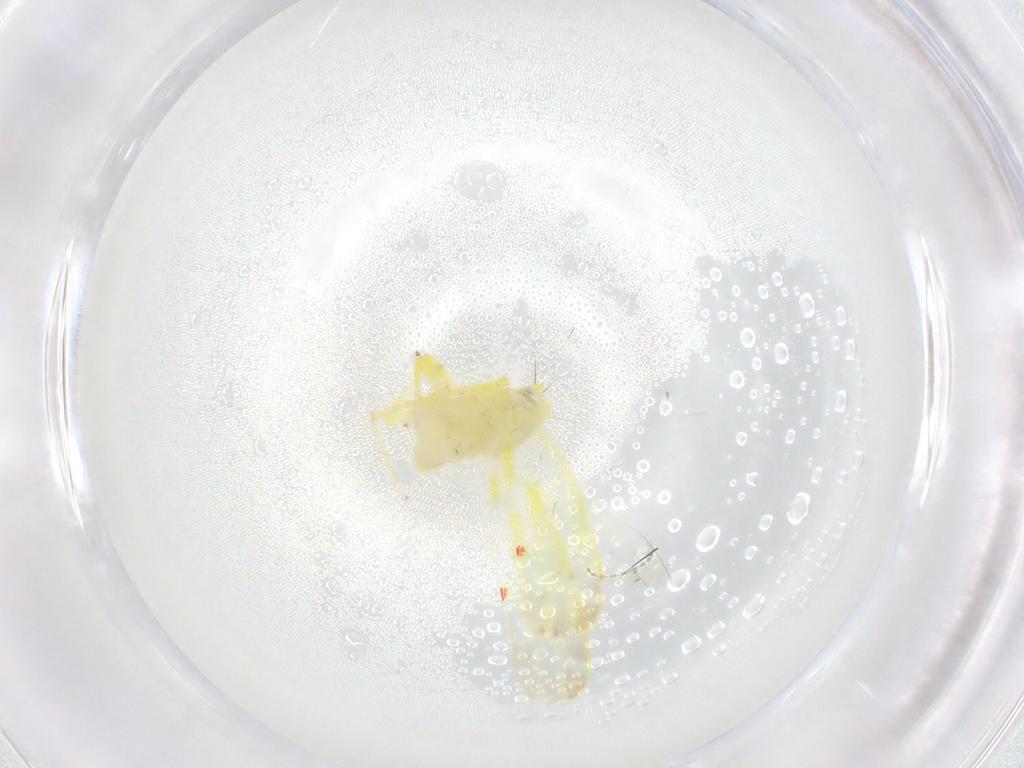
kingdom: Animalia
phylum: Arthropoda
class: Insecta
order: Hemiptera
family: Cicadellidae
